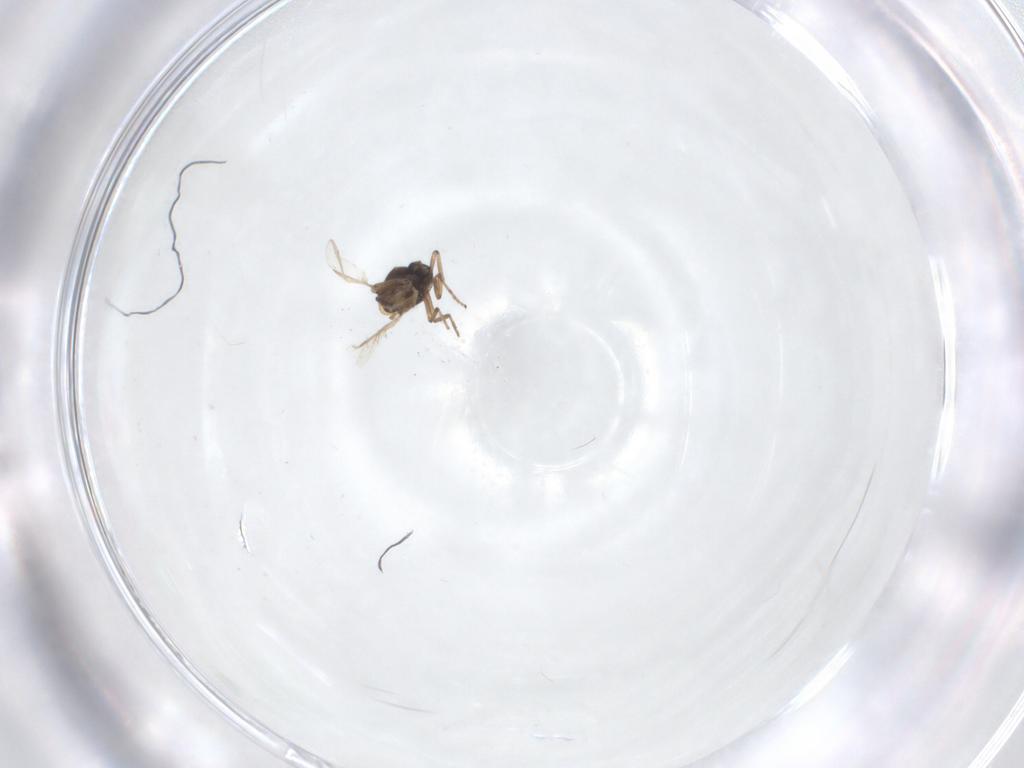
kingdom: Animalia
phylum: Arthropoda
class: Insecta
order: Diptera
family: Ceratopogonidae
